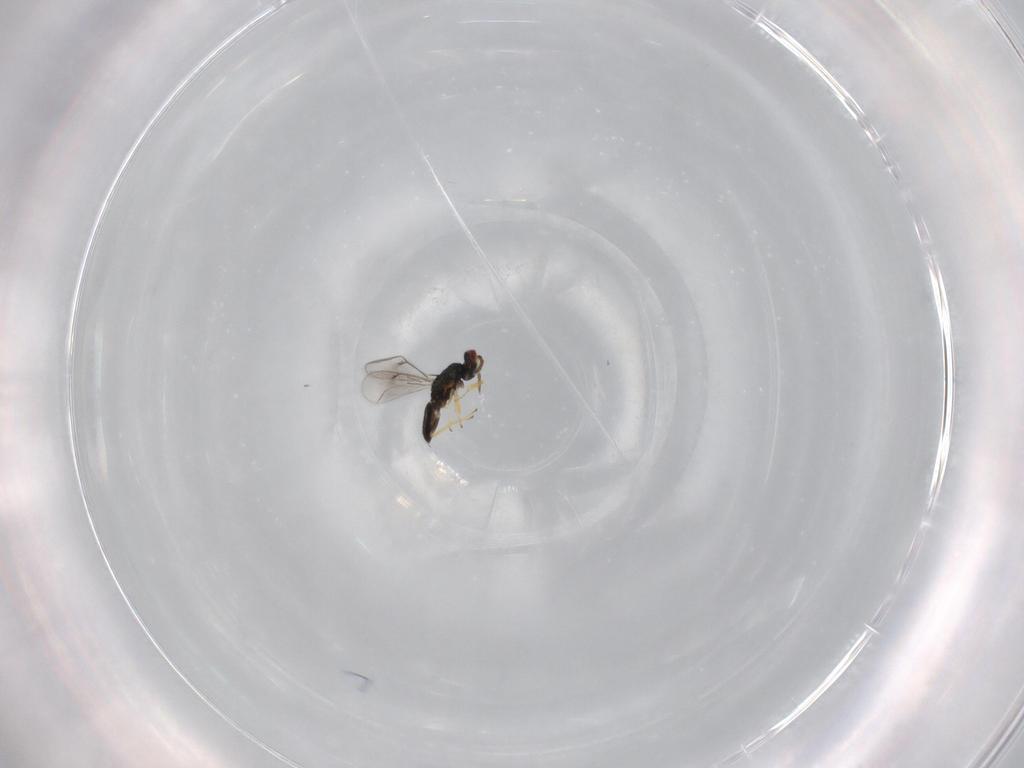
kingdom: Animalia
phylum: Arthropoda
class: Insecta
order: Hymenoptera
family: Eulophidae
